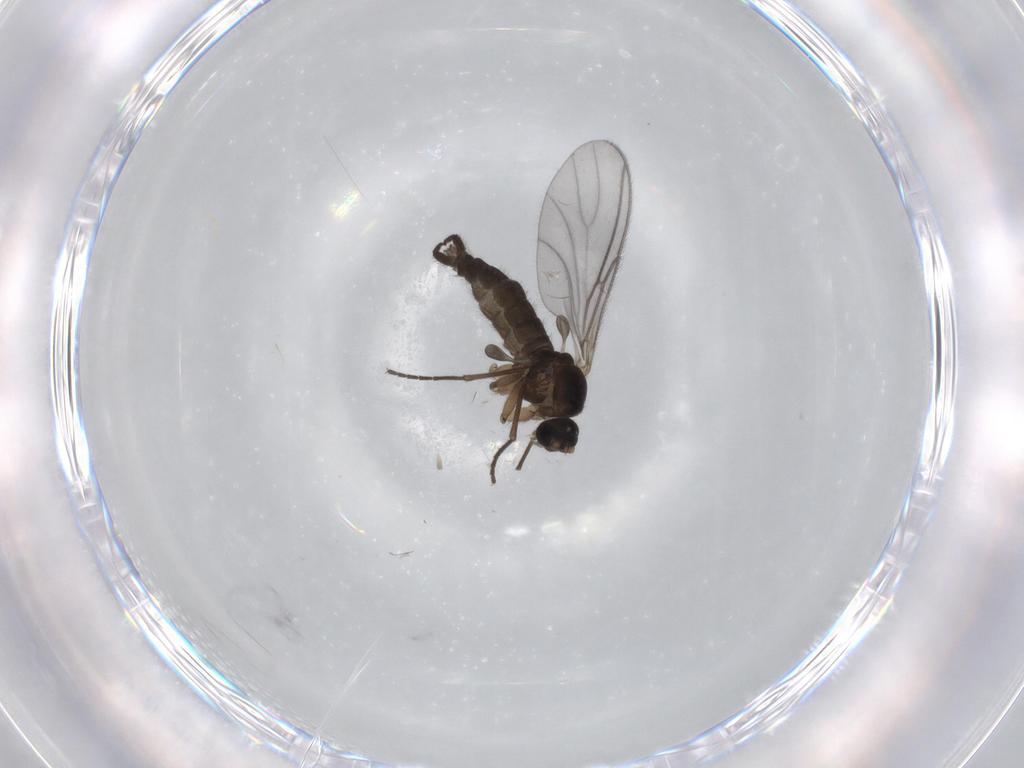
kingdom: Animalia
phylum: Arthropoda
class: Insecta
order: Diptera
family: Sciaridae
